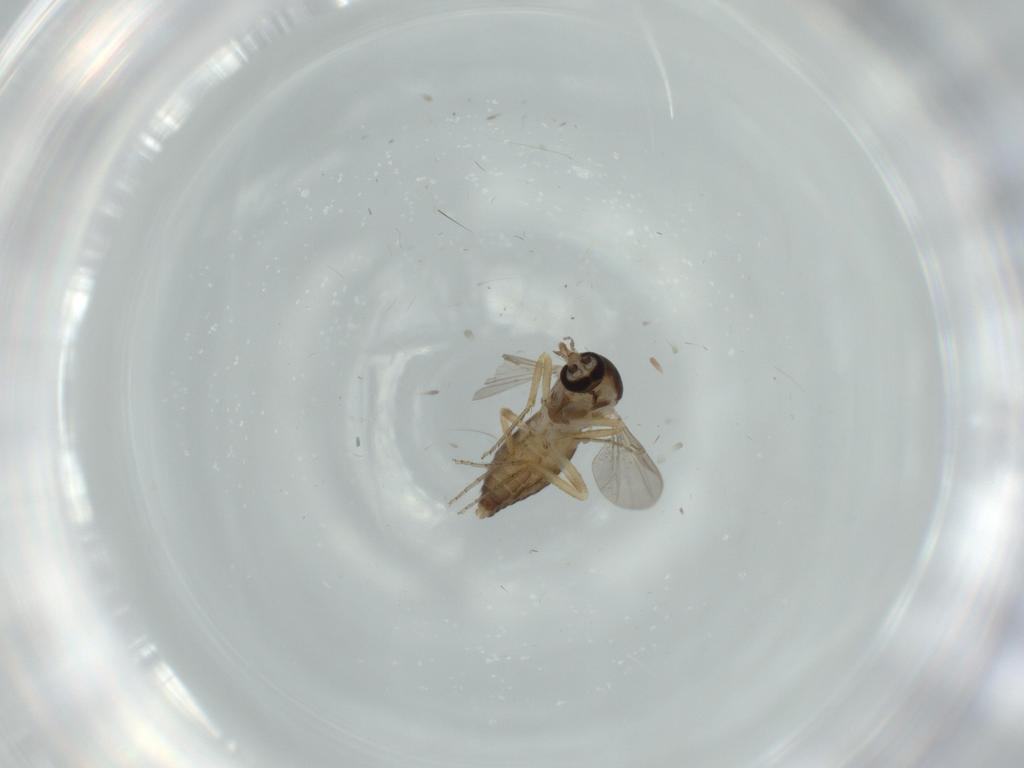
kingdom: Animalia
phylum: Arthropoda
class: Insecta
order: Diptera
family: Ceratopogonidae
